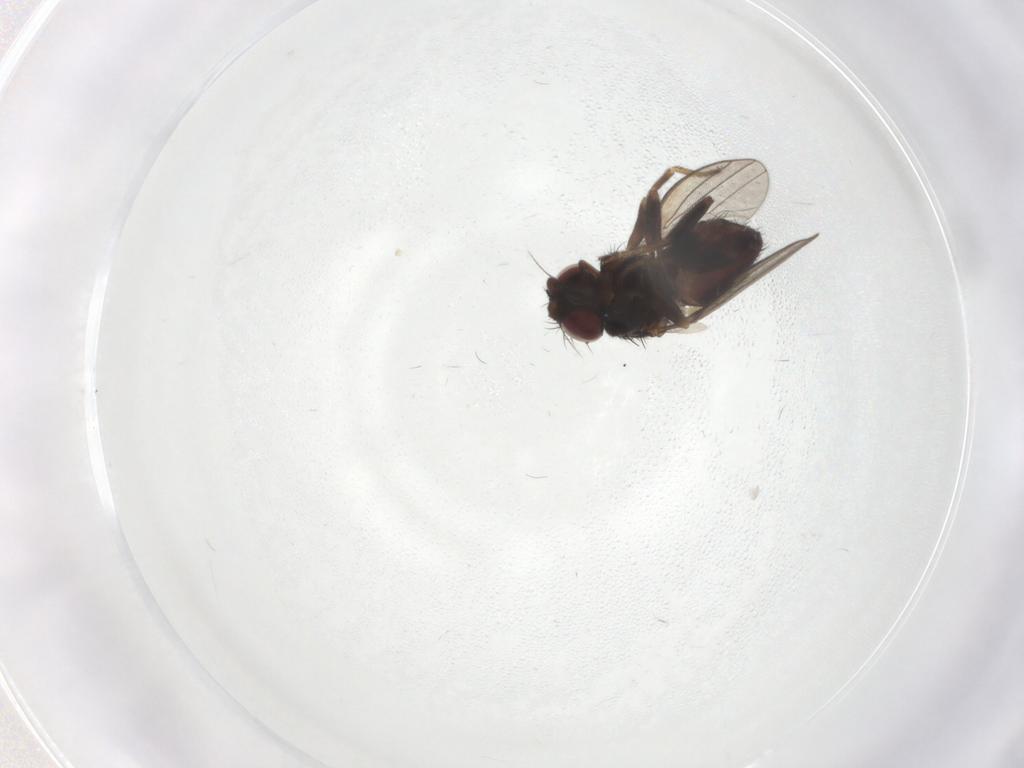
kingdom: Animalia
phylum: Arthropoda
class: Insecta
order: Diptera
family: Milichiidae
